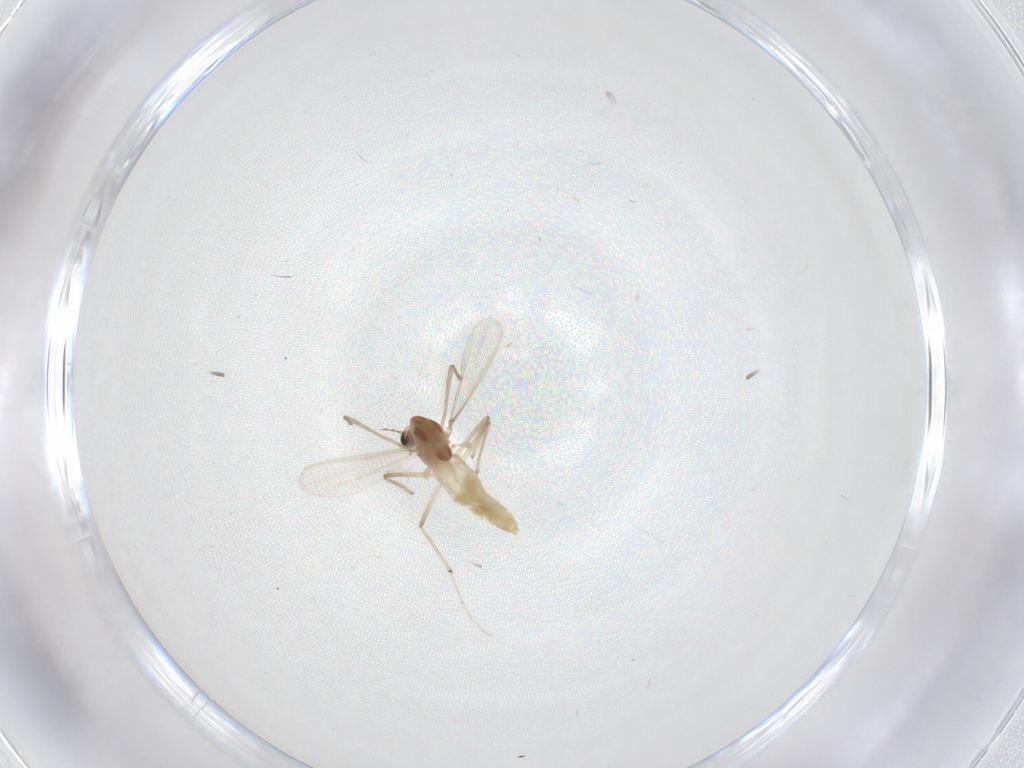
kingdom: Animalia
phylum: Arthropoda
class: Insecta
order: Diptera
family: Chironomidae
